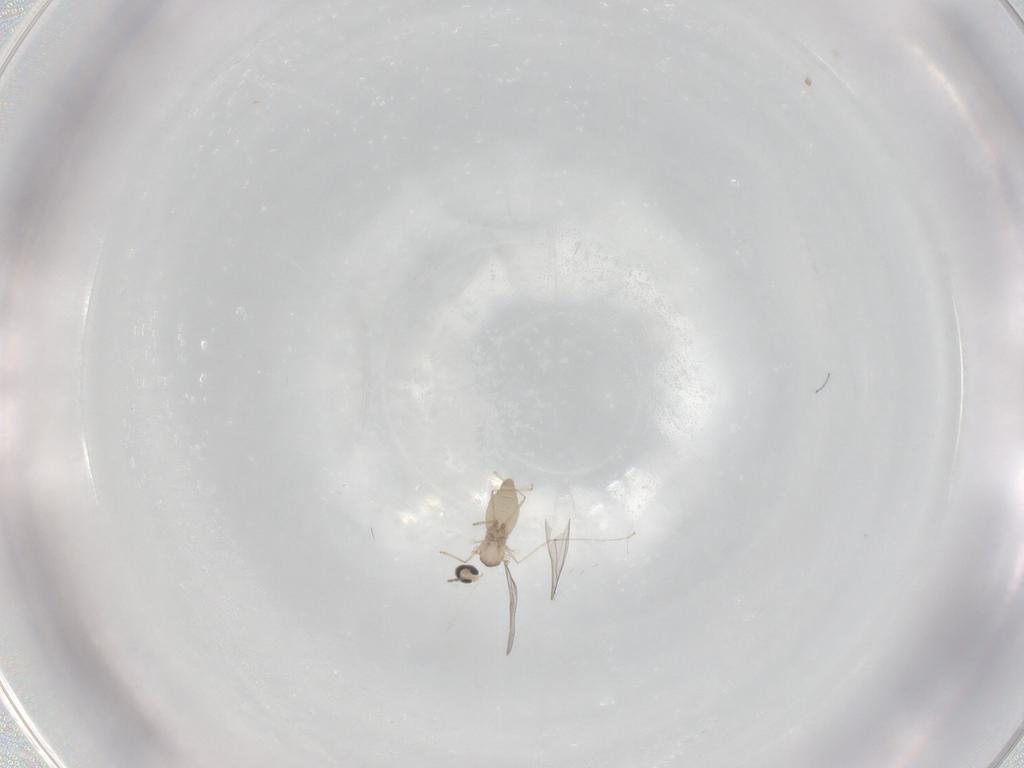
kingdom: Animalia
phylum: Arthropoda
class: Insecta
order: Diptera
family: Cecidomyiidae
